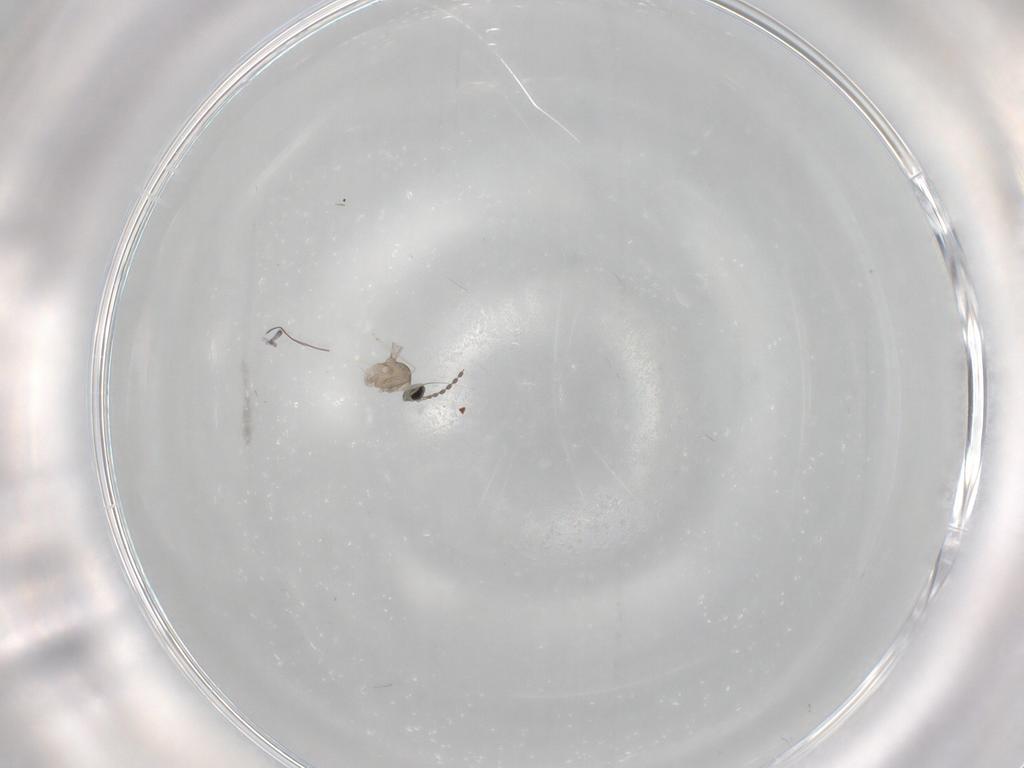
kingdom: Animalia
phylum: Arthropoda
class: Insecta
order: Diptera
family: Cecidomyiidae
